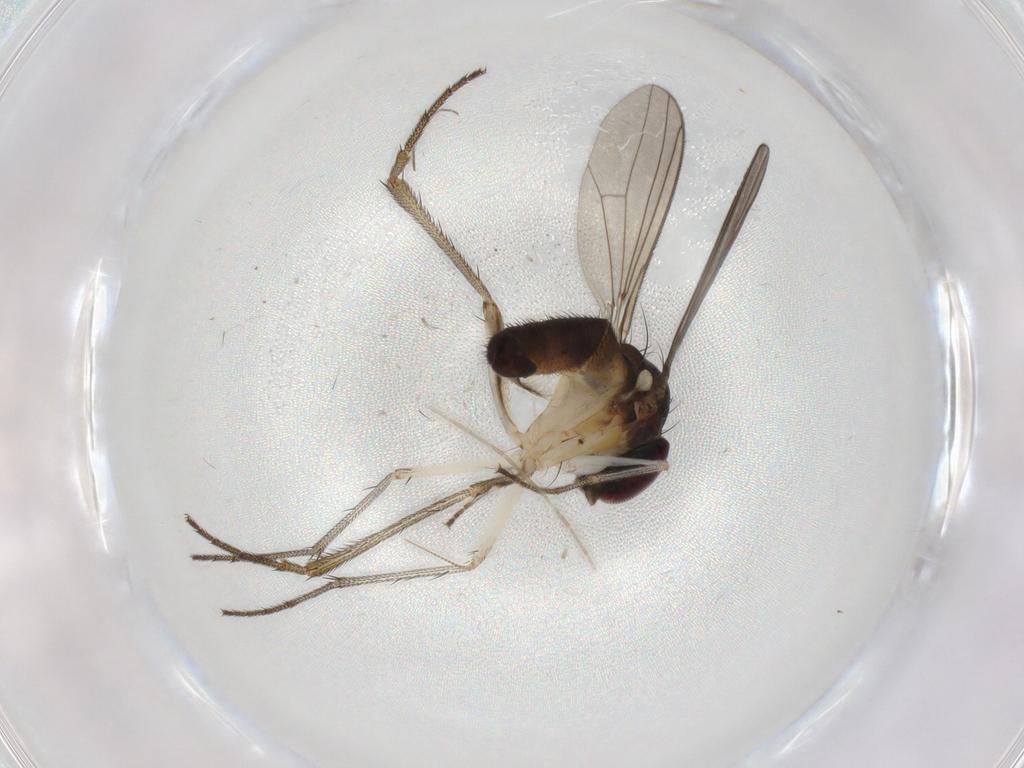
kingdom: Animalia
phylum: Arthropoda
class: Insecta
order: Diptera
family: Dolichopodidae
